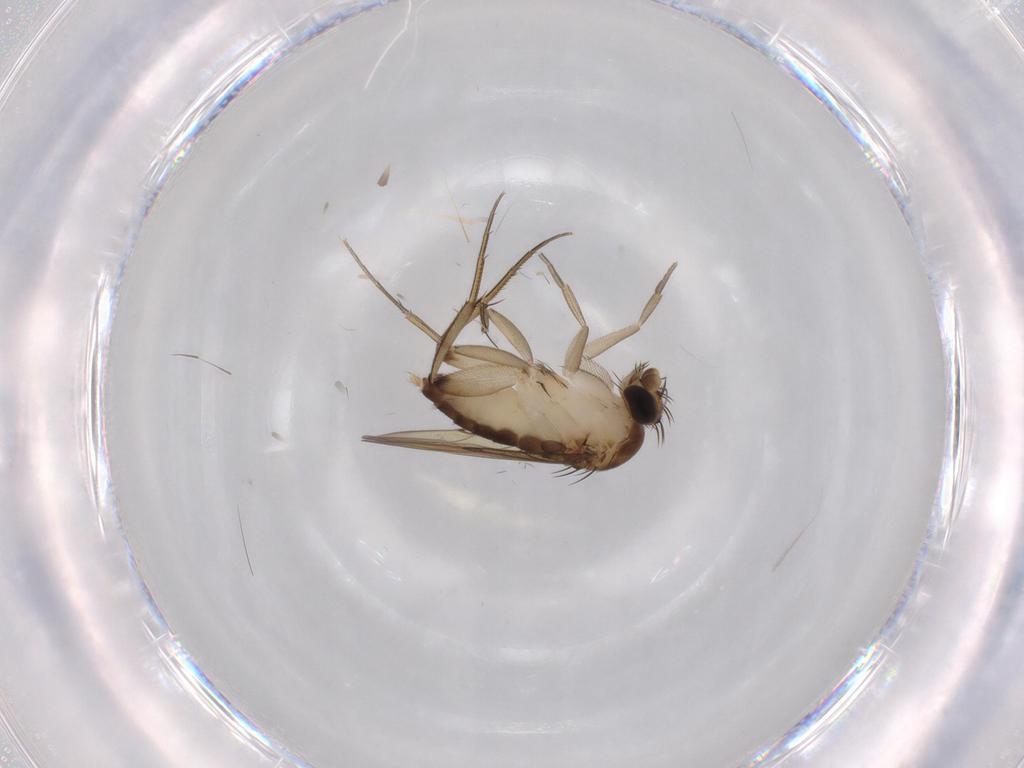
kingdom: Animalia
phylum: Arthropoda
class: Insecta
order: Diptera
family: Phoridae
